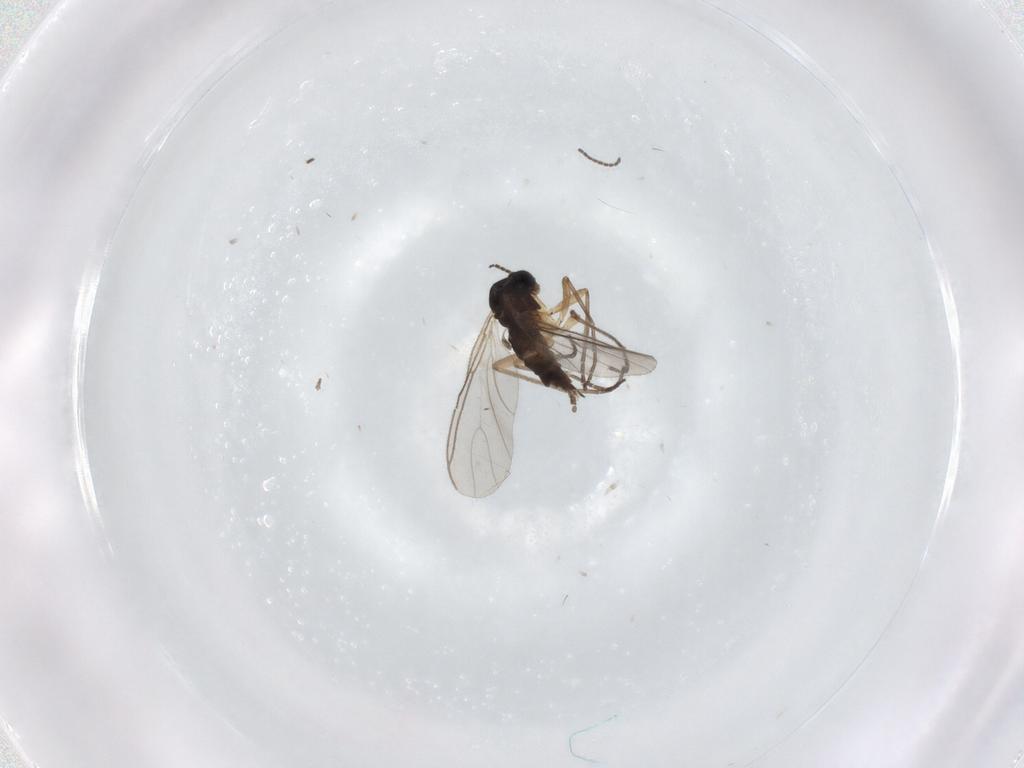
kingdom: Animalia
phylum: Arthropoda
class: Insecta
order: Diptera
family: Sciaridae
